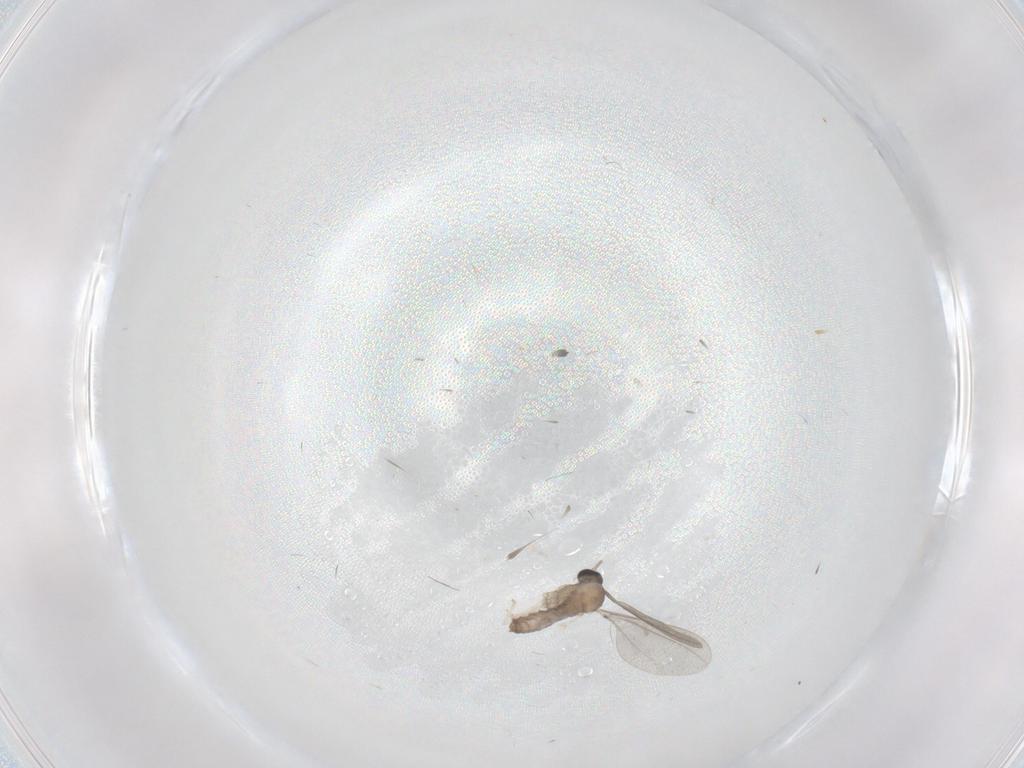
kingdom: Animalia
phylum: Arthropoda
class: Insecta
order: Diptera
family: Cecidomyiidae
